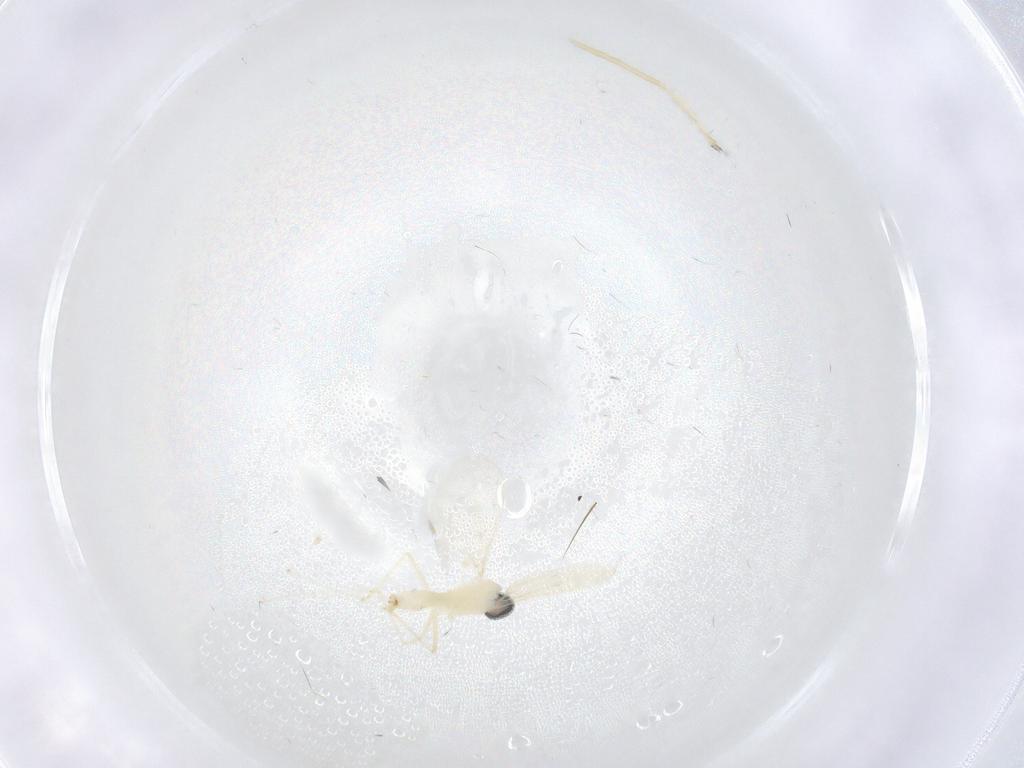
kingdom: Animalia
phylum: Arthropoda
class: Insecta
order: Diptera
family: Cecidomyiidae
